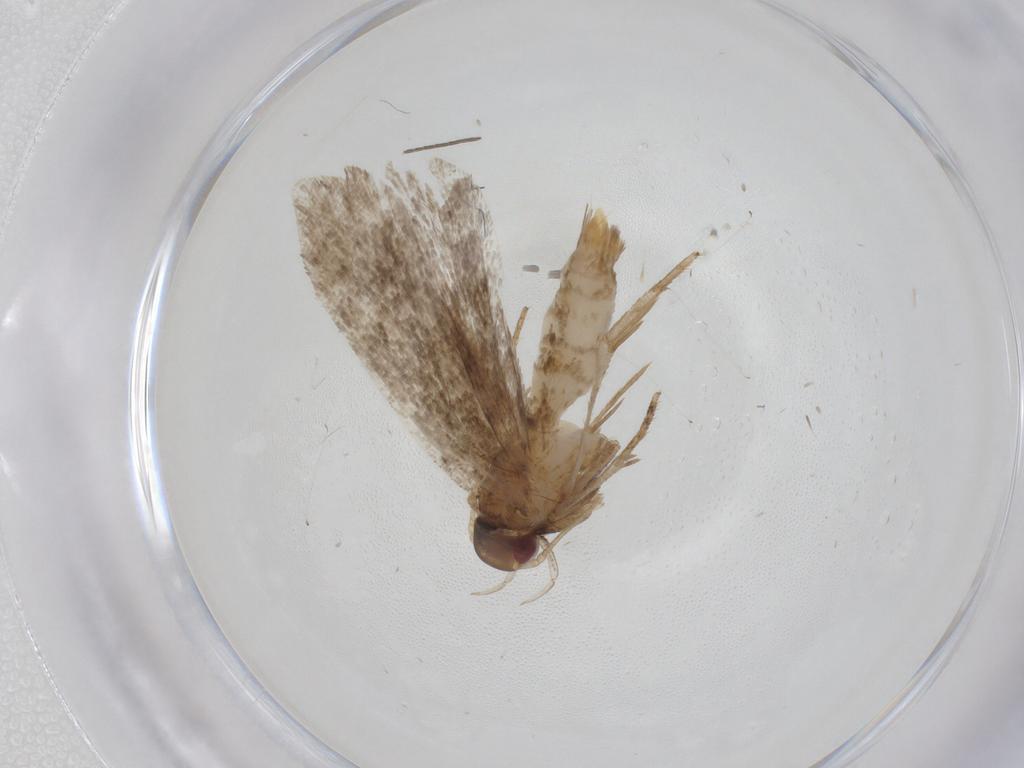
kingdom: Animalia
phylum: Arthropoda
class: Insecta
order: Lepidoptera
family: Gelechiidae
